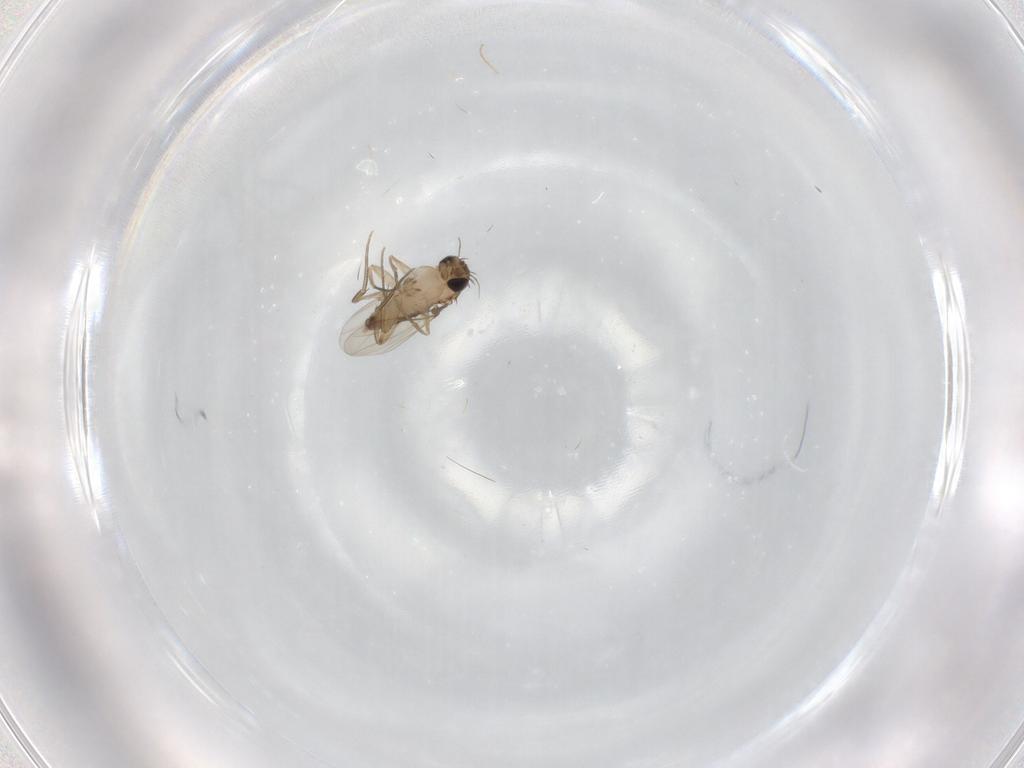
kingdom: Animalia
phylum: Arthropoda
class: Insecta
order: Diptera
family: Phoridae
